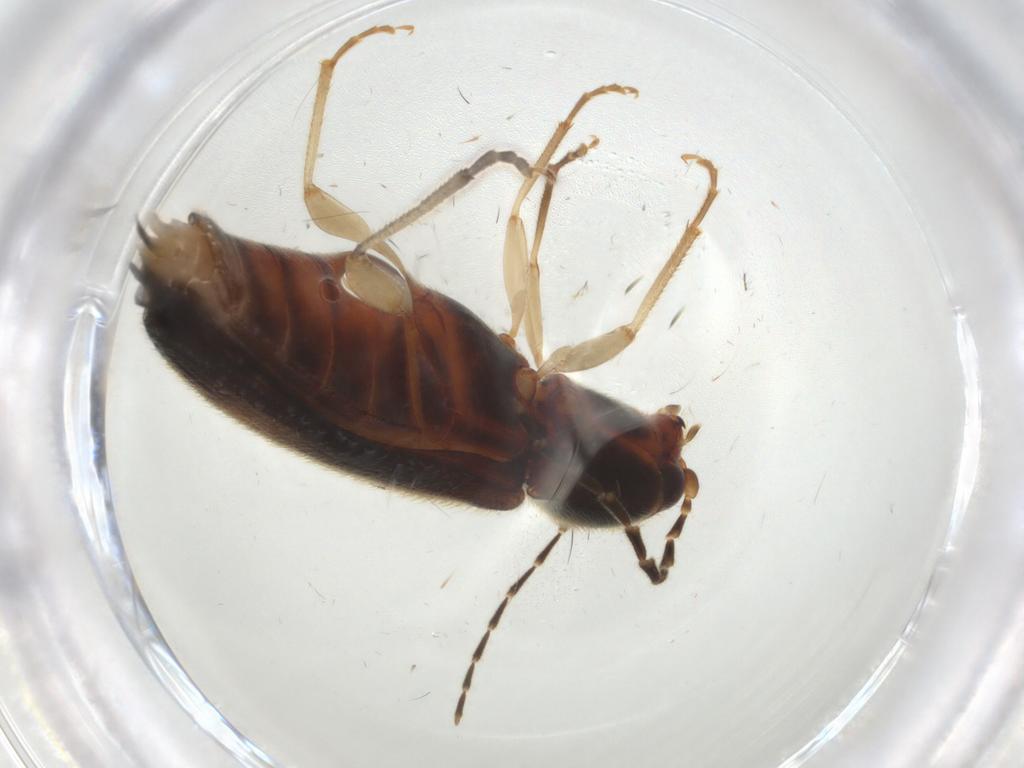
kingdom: Animalia
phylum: Arthropoda
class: Insecta
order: Coleoptera
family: Elateridae
